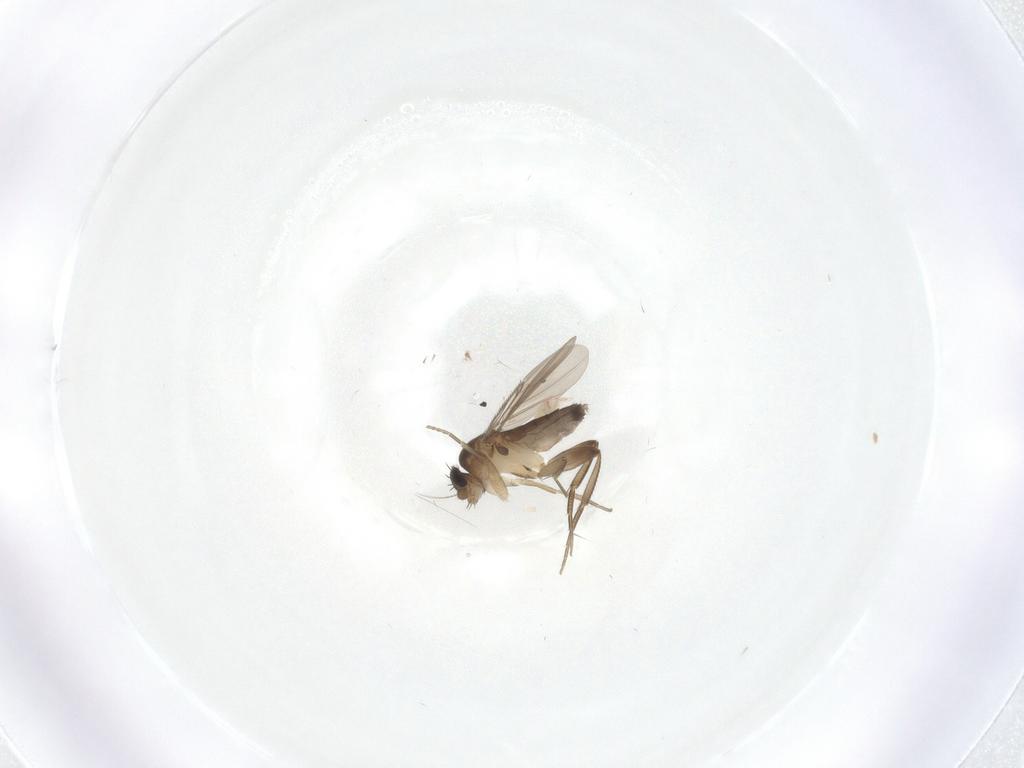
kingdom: Animalia
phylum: Arthropoda
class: Insecta
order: Diptera
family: Phoridae
